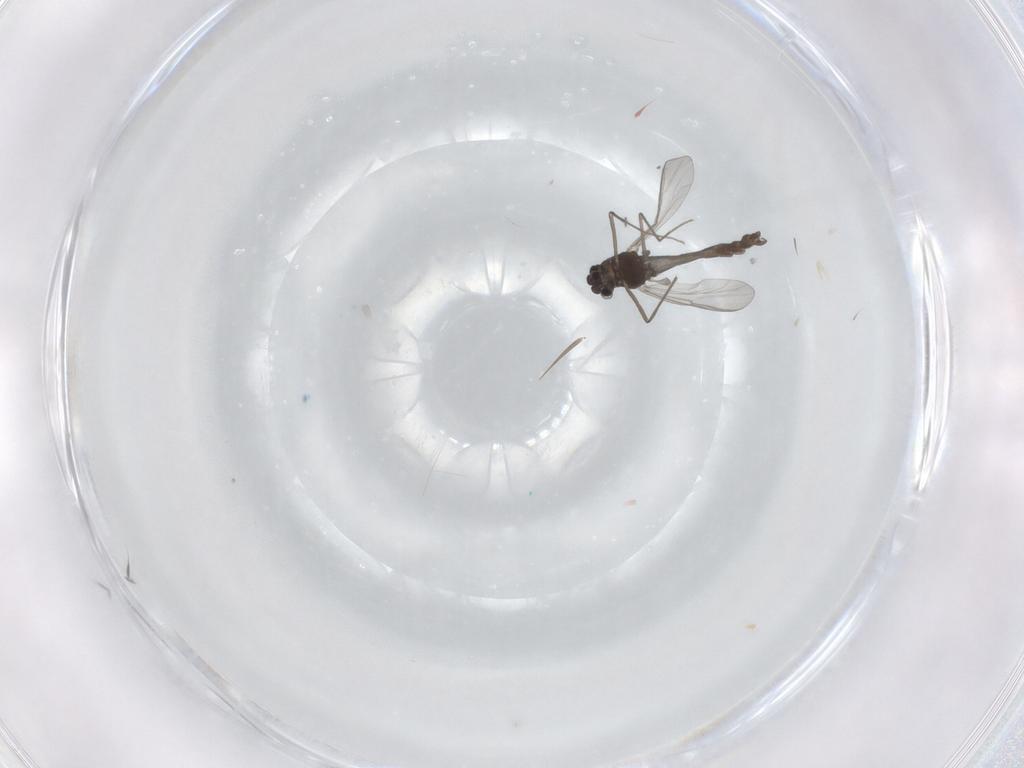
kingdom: Animalia
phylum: Arthropoda
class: Insecta
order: Diptera
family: Chironomidae
